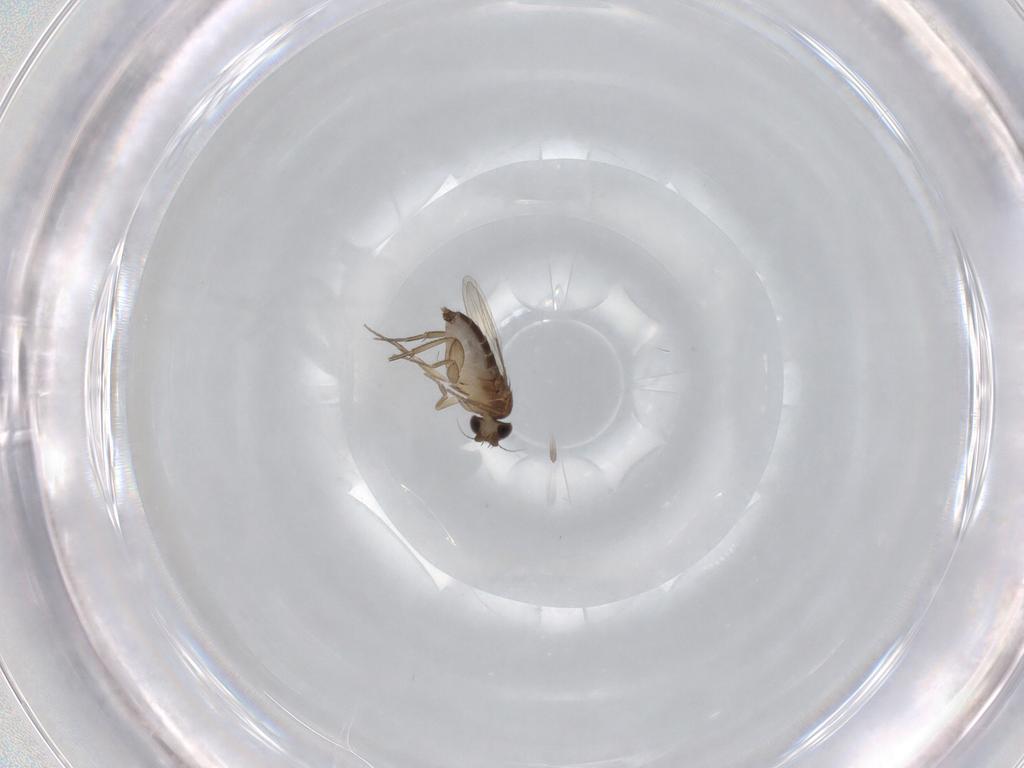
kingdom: Animalia
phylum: Arthropoda
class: Insecta
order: Diptera
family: Phoridae
